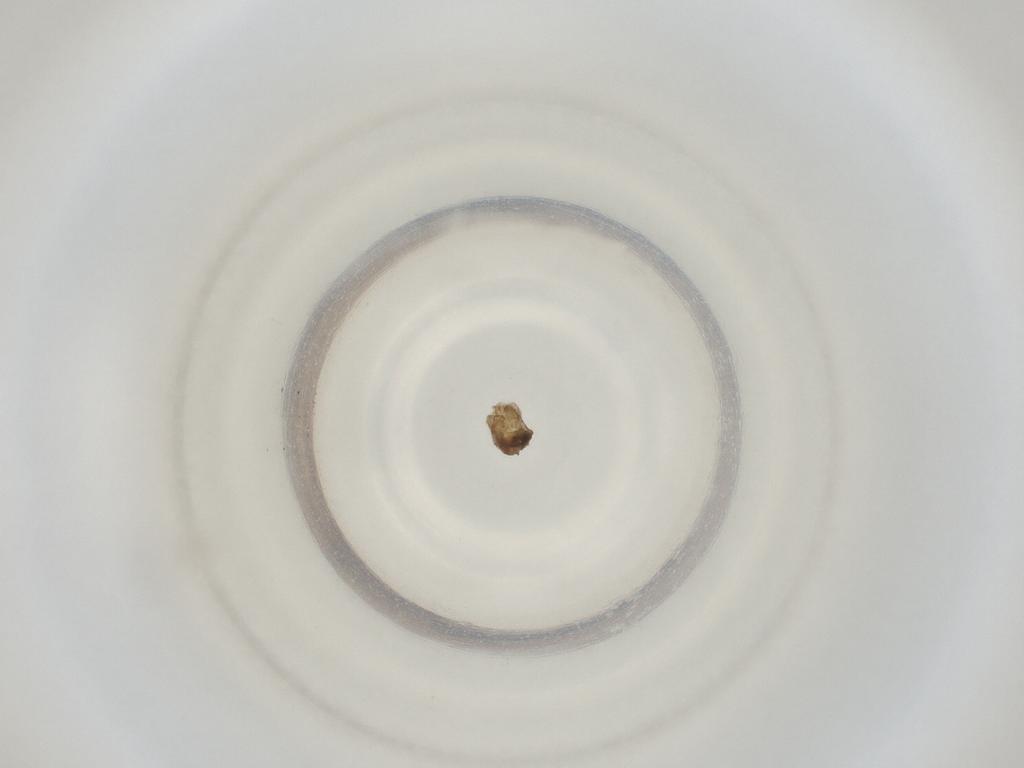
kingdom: Animalia
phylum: Arthropoda
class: Insecta
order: Diptera
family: Cecidomyiidae
